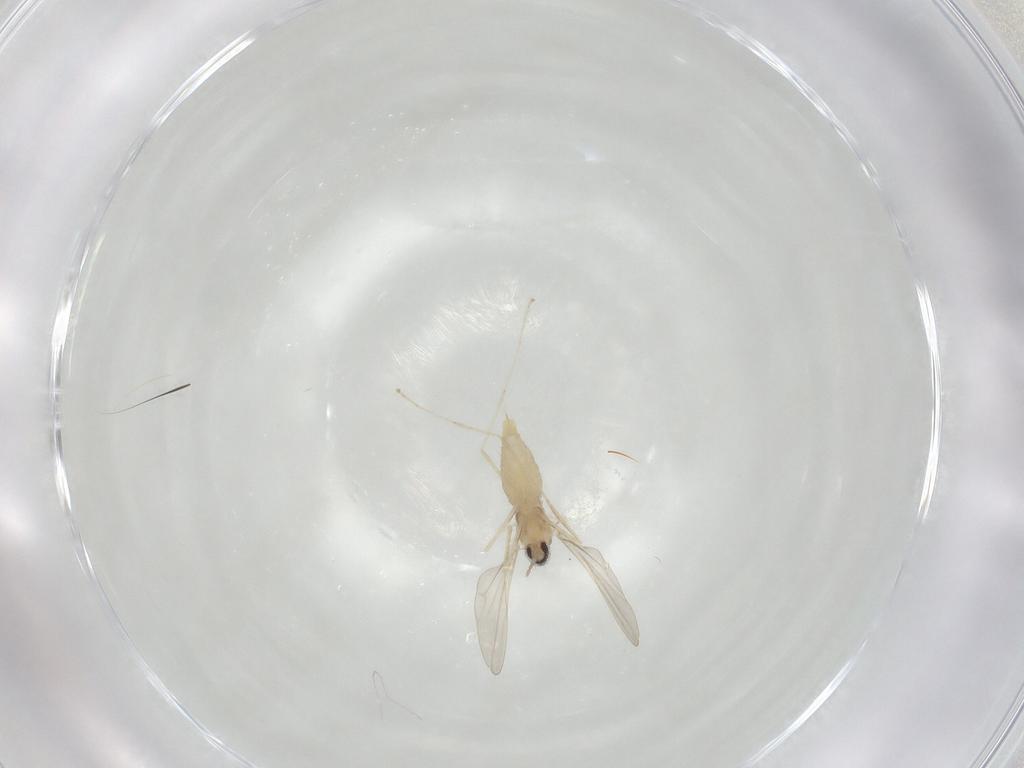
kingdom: Animalia
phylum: Arthropoda
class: Insecta
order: Diptera
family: Cecidomyiidae
